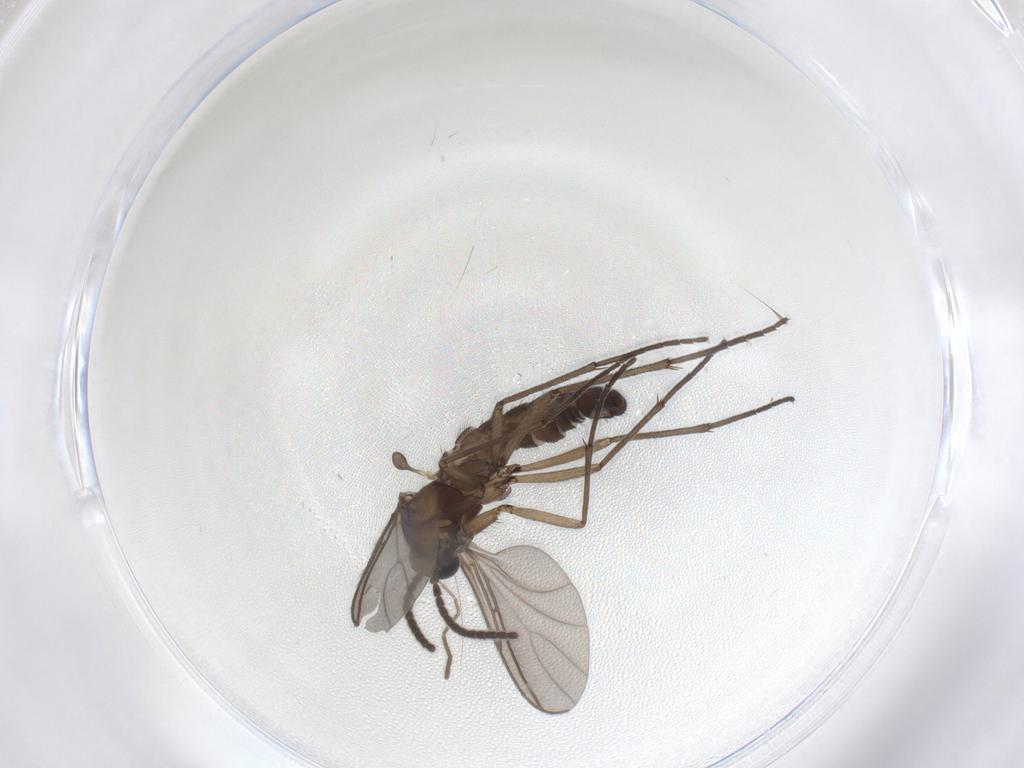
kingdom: Animalia
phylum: Arthropoda
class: Insecta
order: Diptera
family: Sciaridae
